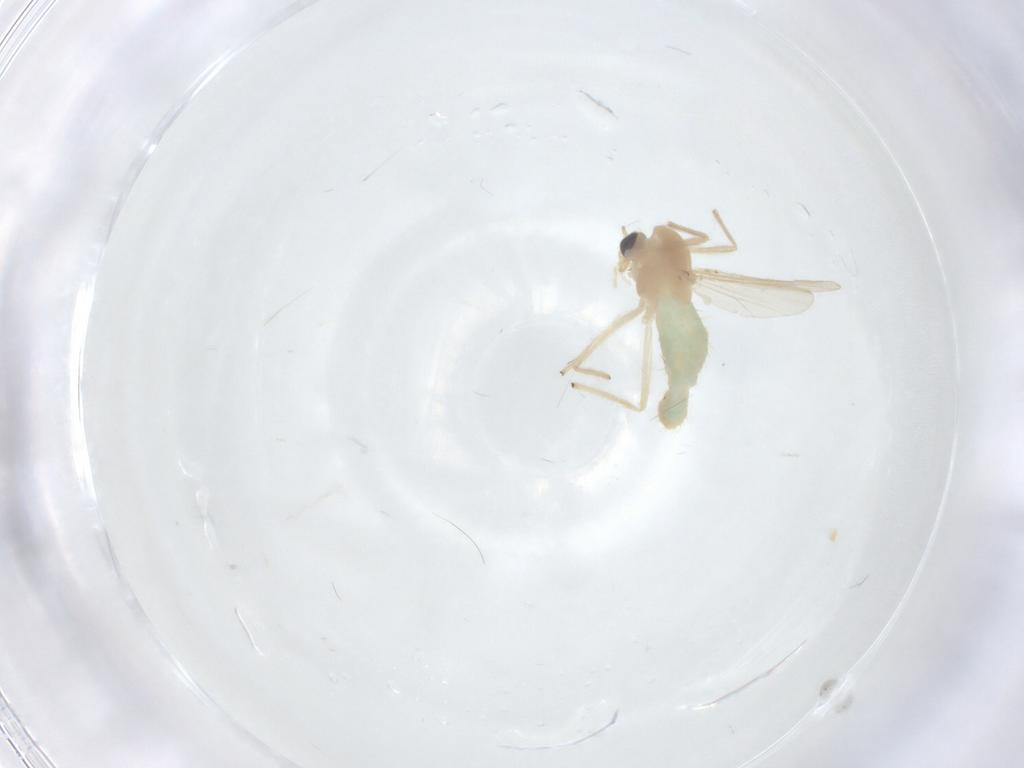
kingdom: Animalia
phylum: Arthropoda
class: Insecta
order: Diptera
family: Chironomidae
